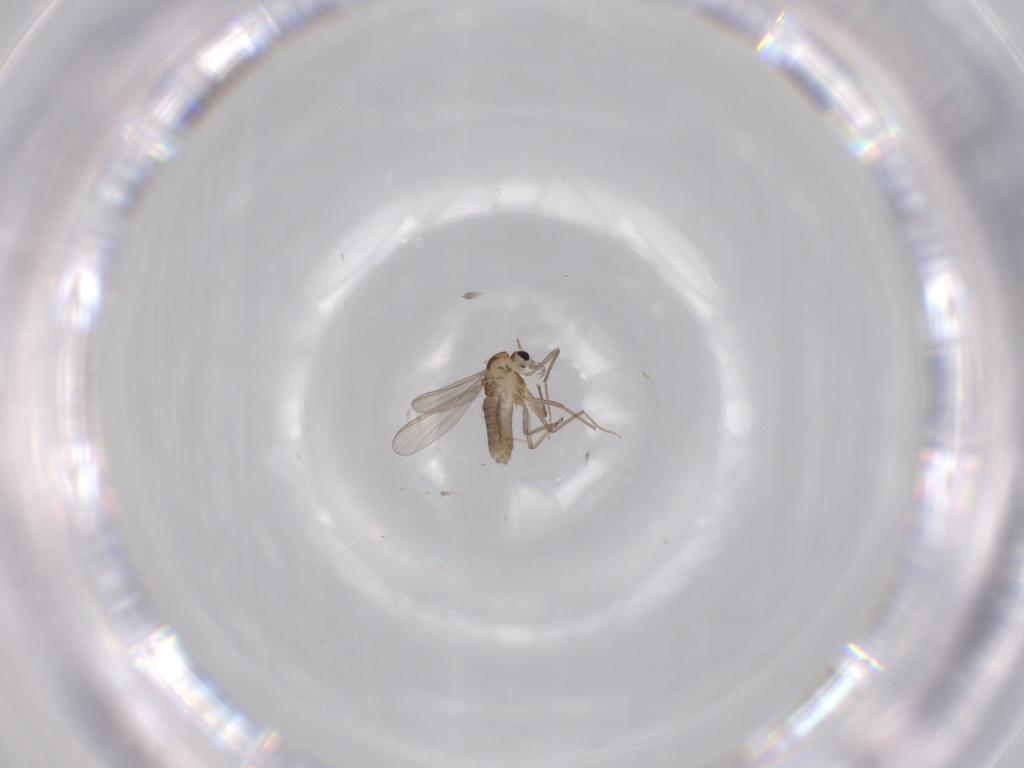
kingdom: Animalia
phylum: Arthropoda
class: Insecta
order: Diptera
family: Chironomidae
